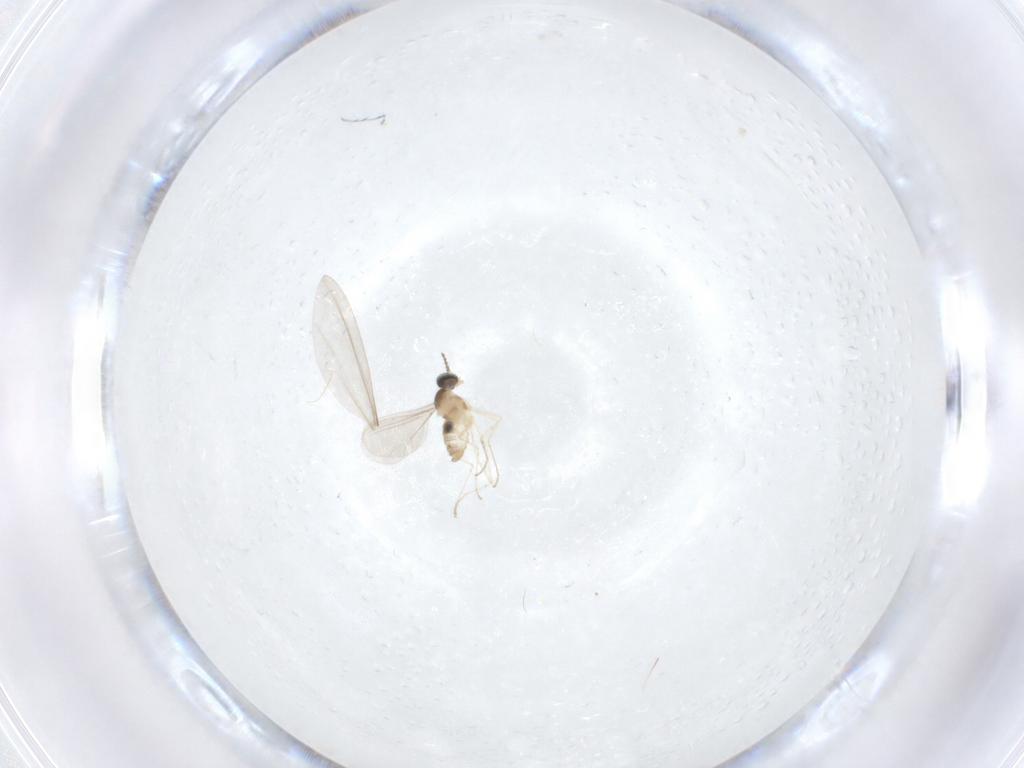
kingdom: Animalia
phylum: Arthropoda
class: Insecta
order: Diptera
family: Cecidomyiidae
